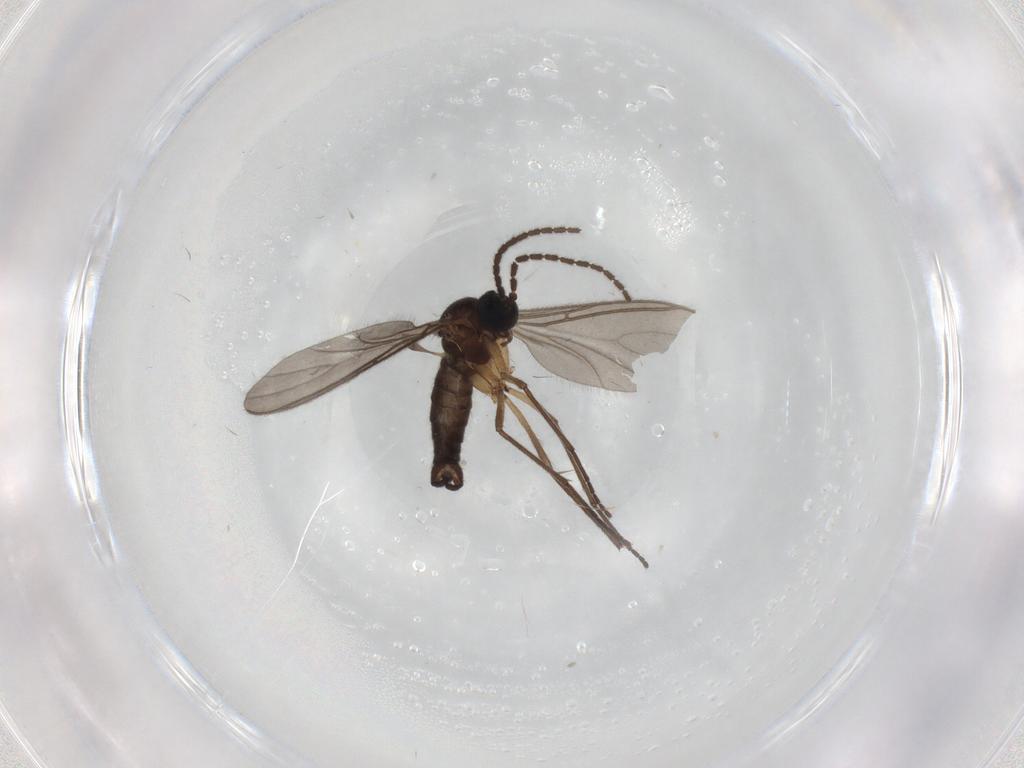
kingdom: Animalia
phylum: Arthropoda
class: Insecta
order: Diptera
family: Sciaridae
